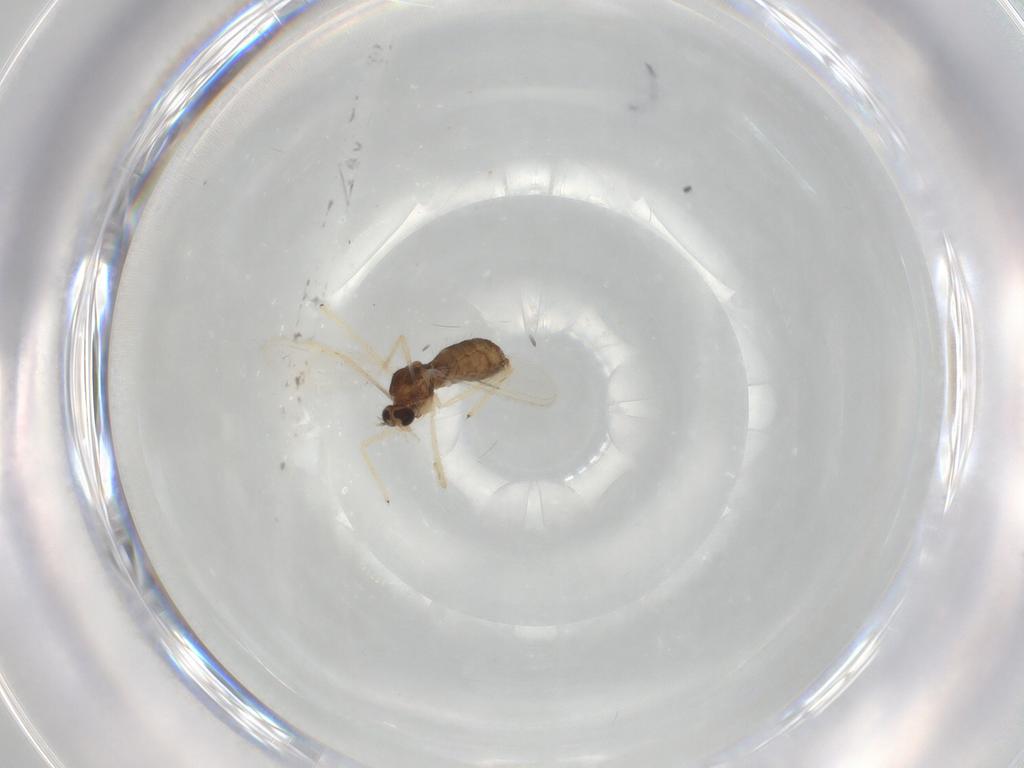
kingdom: Animalia
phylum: Arthropoda
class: Insecta
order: Diptera
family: Chironomidae
